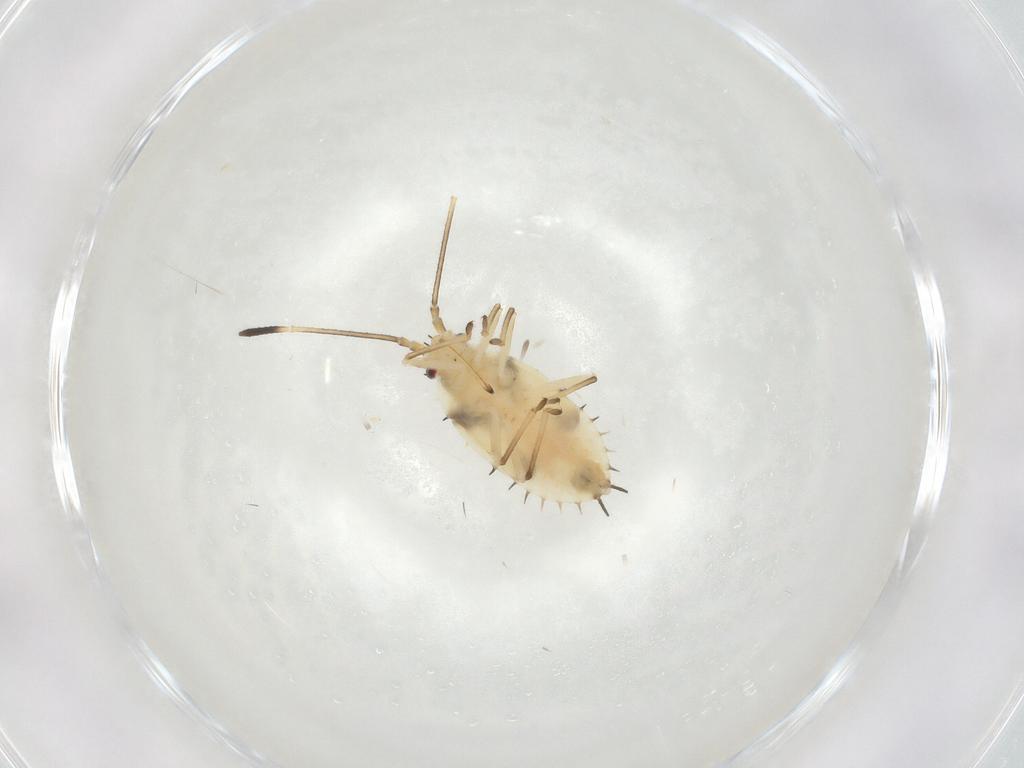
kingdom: Animalia
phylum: Arthropoda
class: Insecta
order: Hemiptera
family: Tingidae
